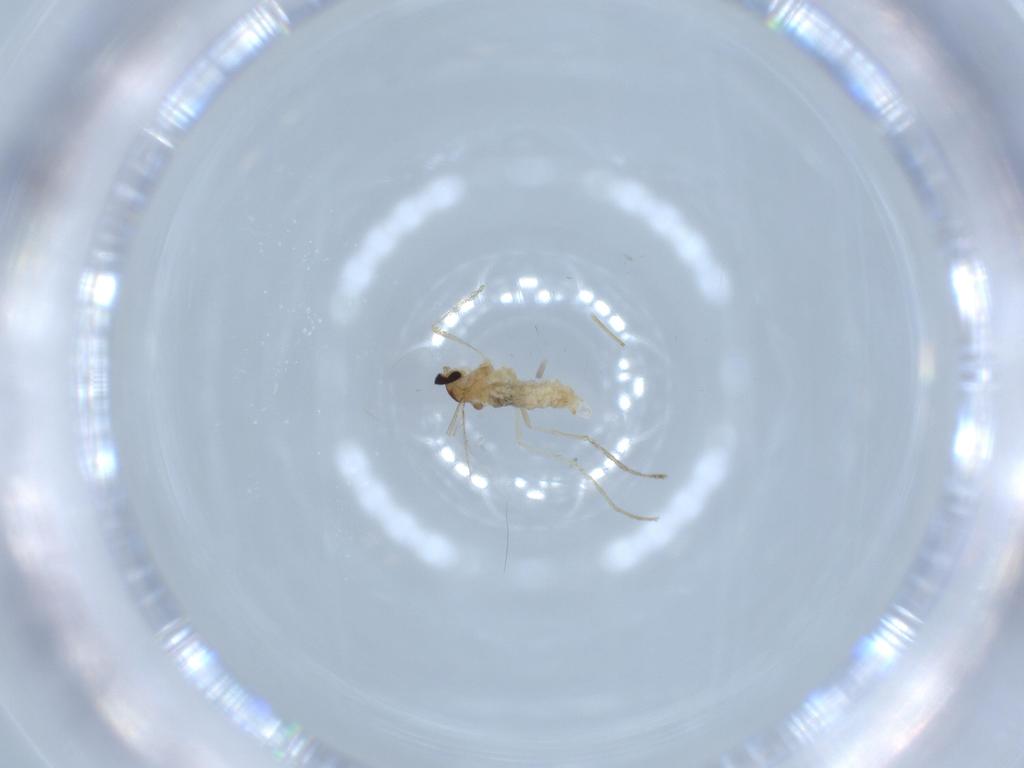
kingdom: Animalia
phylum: Arthropoda
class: Insecta
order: Diptera
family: Cecidomyiidae
